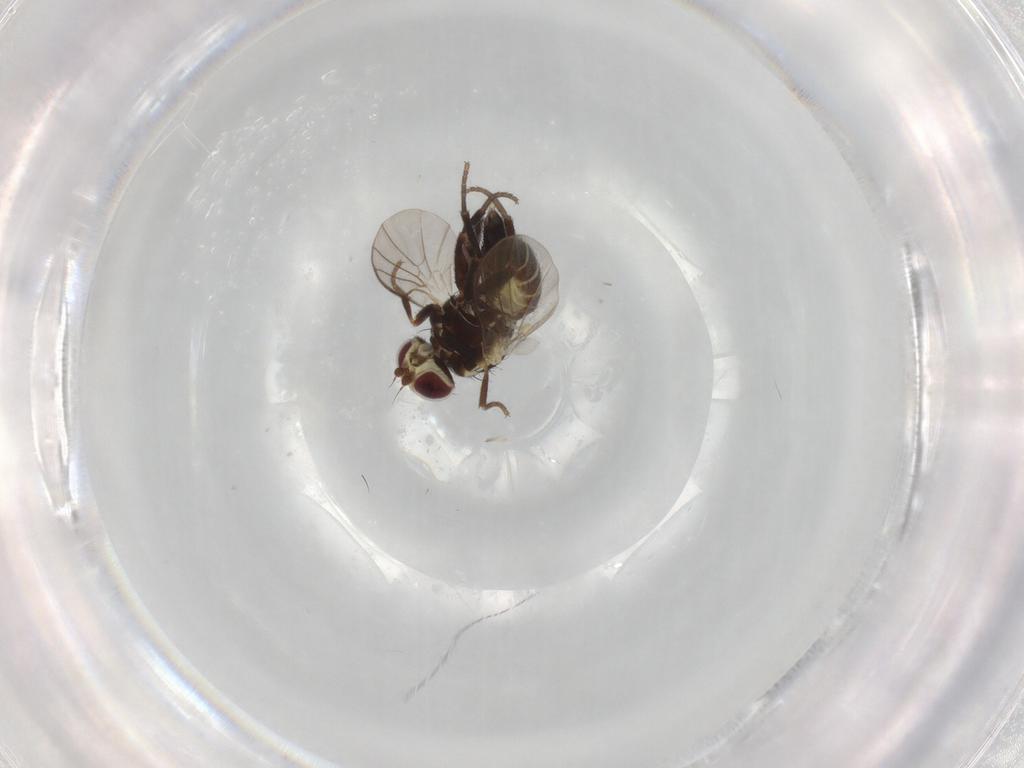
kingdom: Animalia
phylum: Arthropoda
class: Insecta
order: Diptera
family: Agromyzidae
